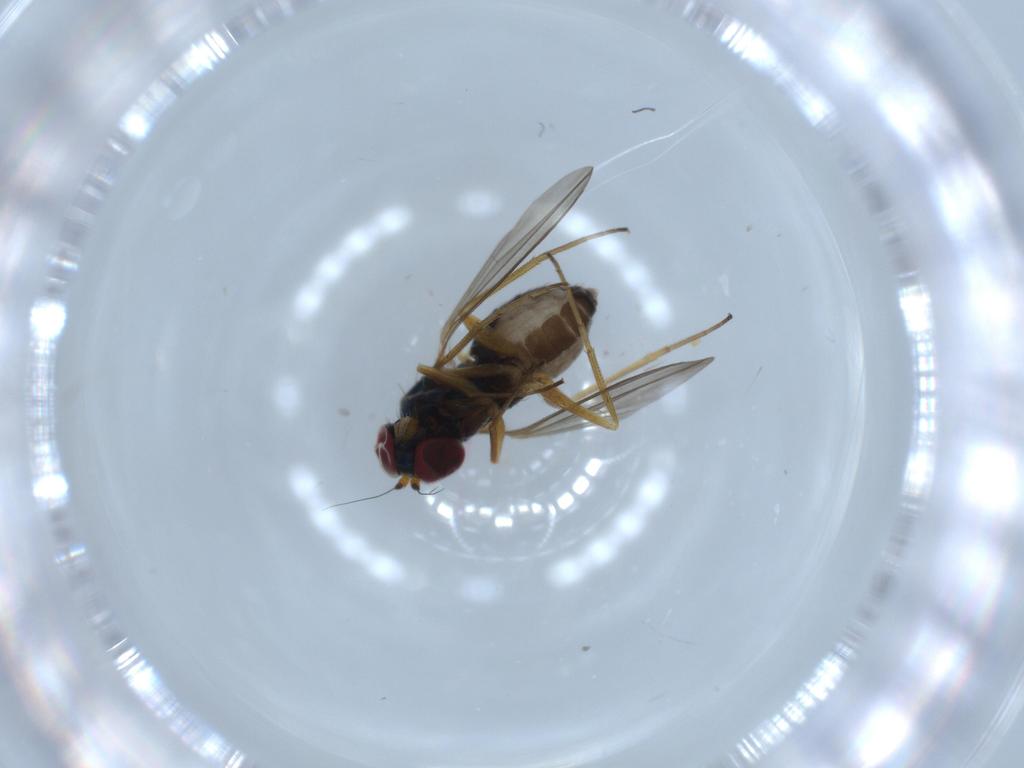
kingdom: Animalia
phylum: Arthropoda
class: Insecta
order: Diptera
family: Dolichopodidae
